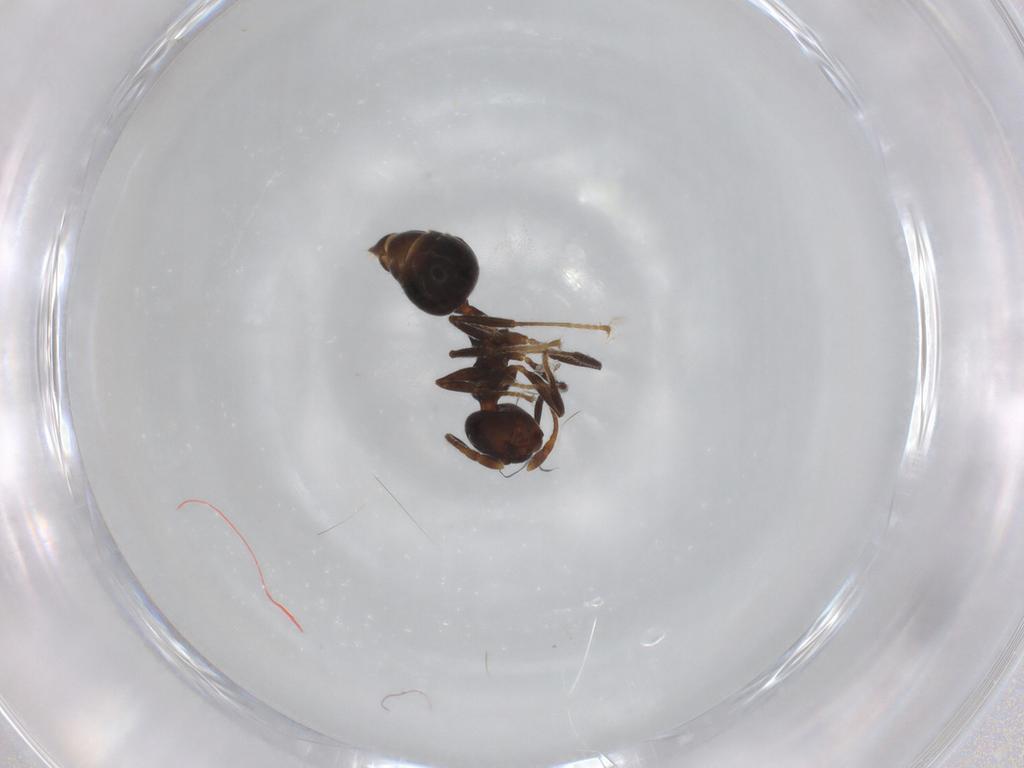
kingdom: Animalia
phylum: Arthropoda
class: Insecta
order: Hymenoptera
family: Formicidae
